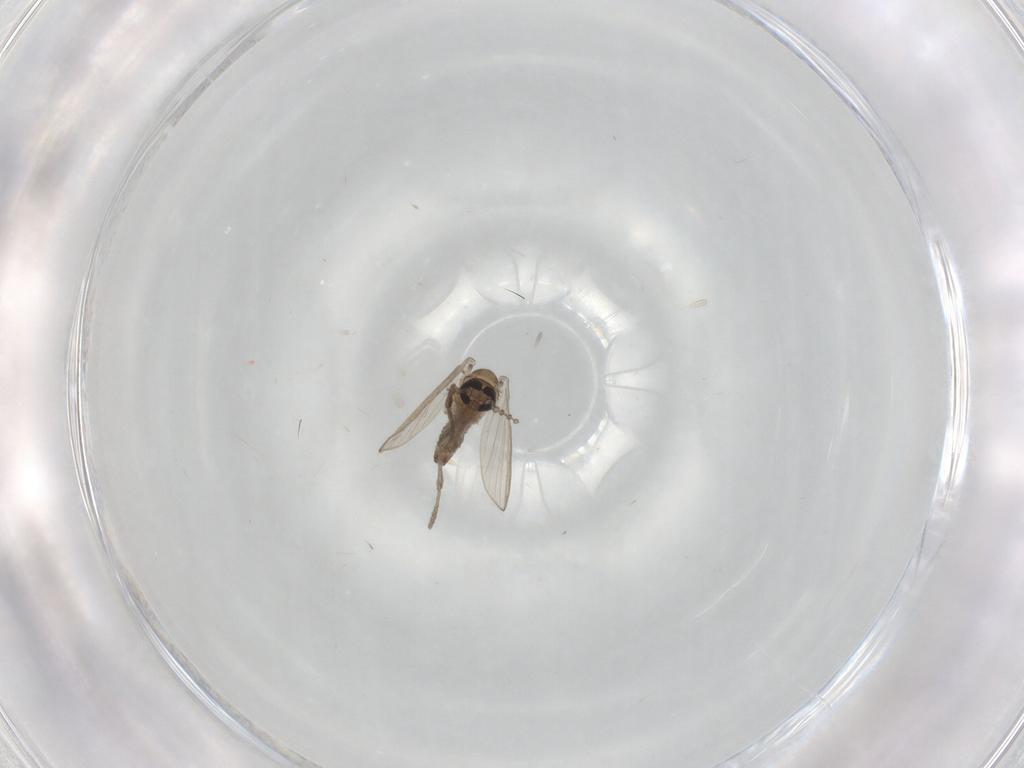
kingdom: Animalia
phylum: Arthropoda
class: Insecta
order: Diptera
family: Psychodidae
